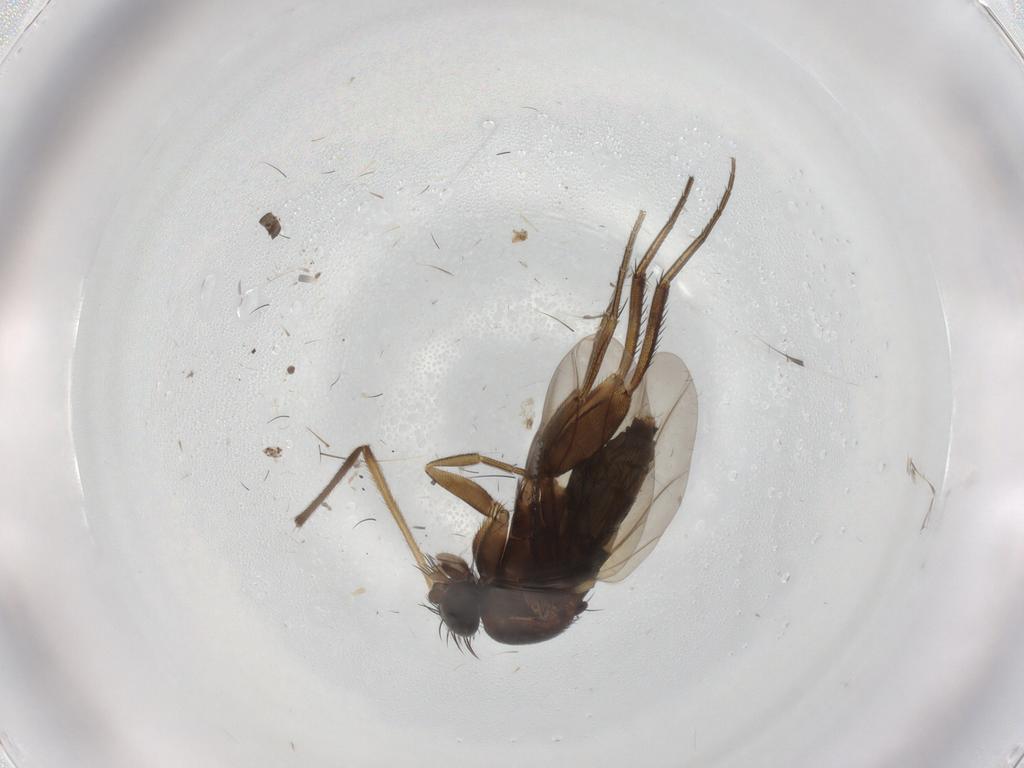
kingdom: Animalia
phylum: Arthropoda
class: Insecta
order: Diptera
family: Phoridae
